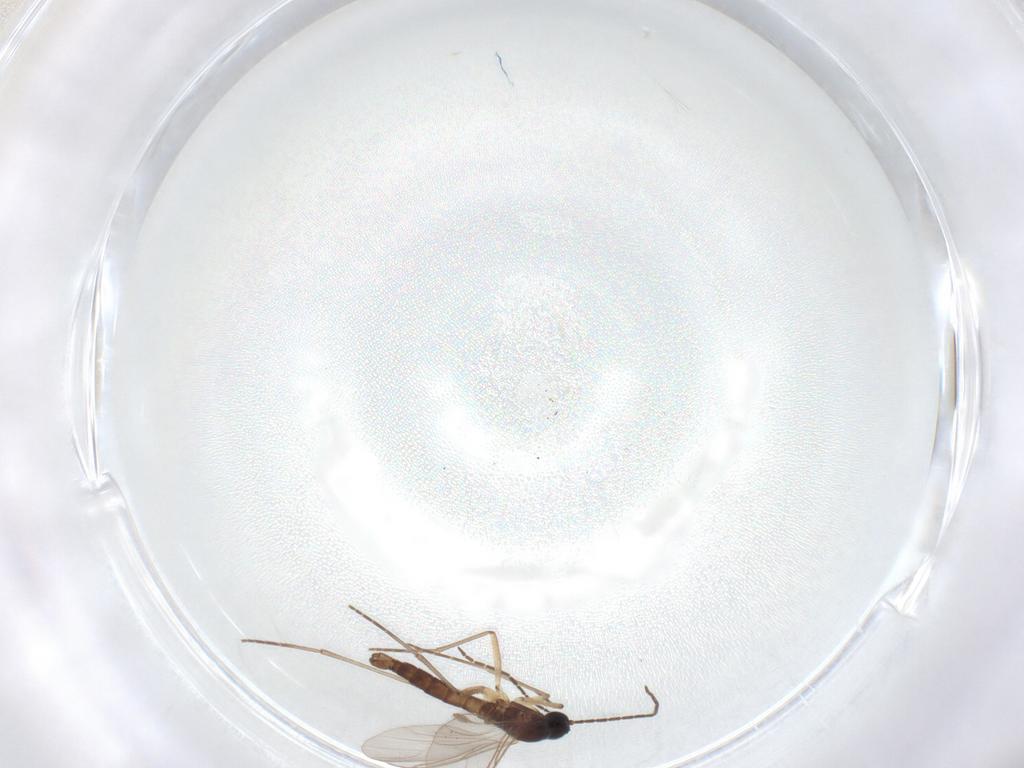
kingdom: Animalia
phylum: Arthropoda
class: Insecta
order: Diptera
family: Sciaridae
